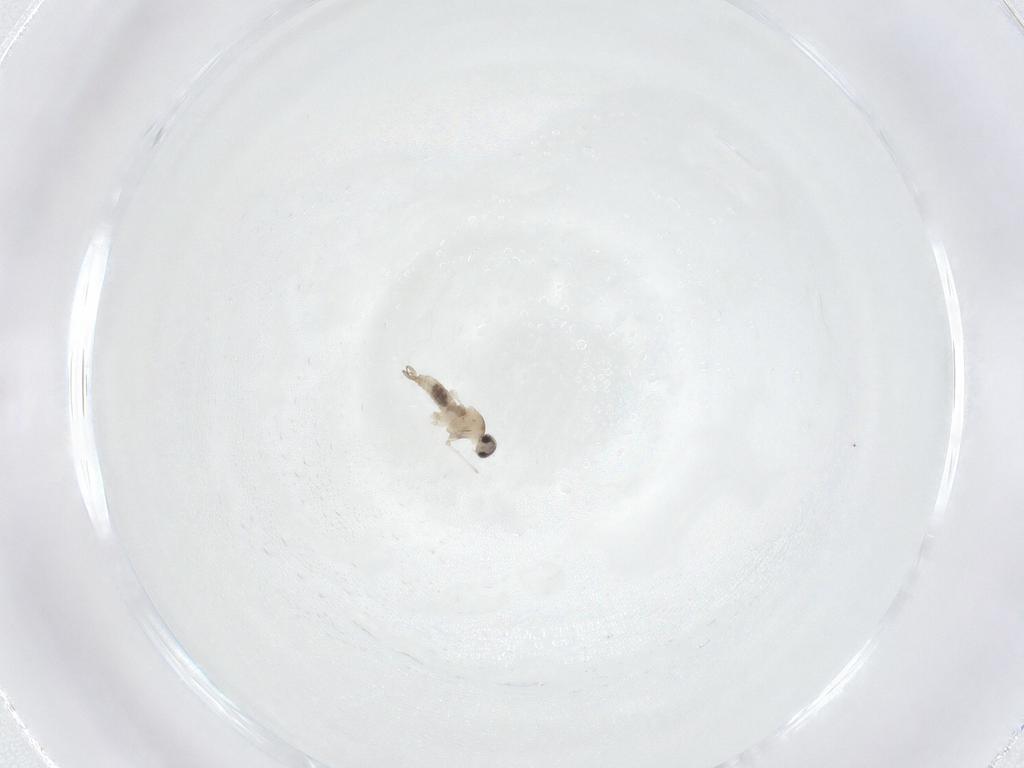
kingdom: Animalia
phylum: Arthropoda
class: Insecta
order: Diptera
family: Cecidomyiidae
